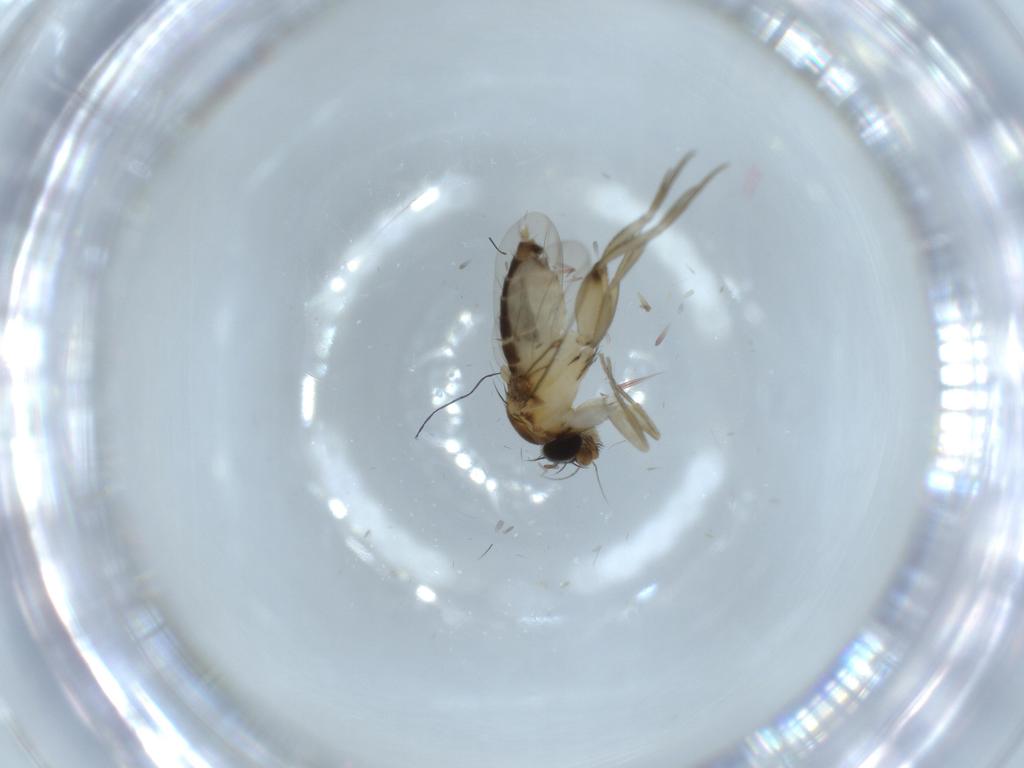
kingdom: Animalia
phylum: Arthropoda
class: Insecta
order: Diptera
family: Phoridae
